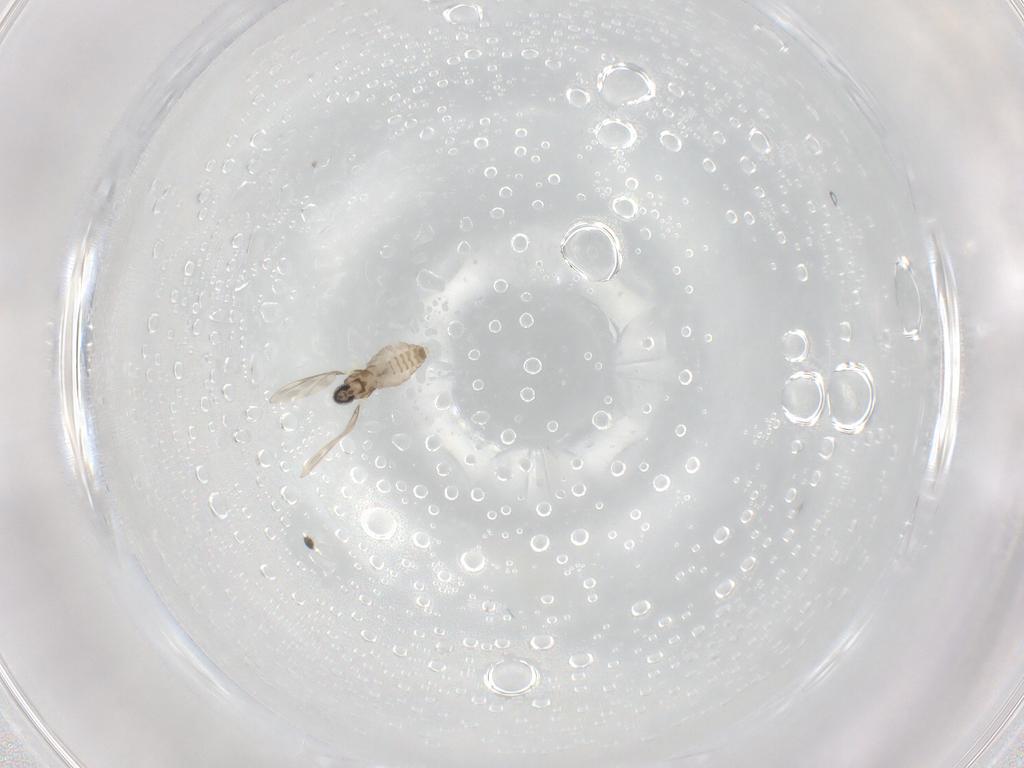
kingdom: Animalia
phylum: Arthropoda
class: Insecta
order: Diptera
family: Cecidomyiidae
